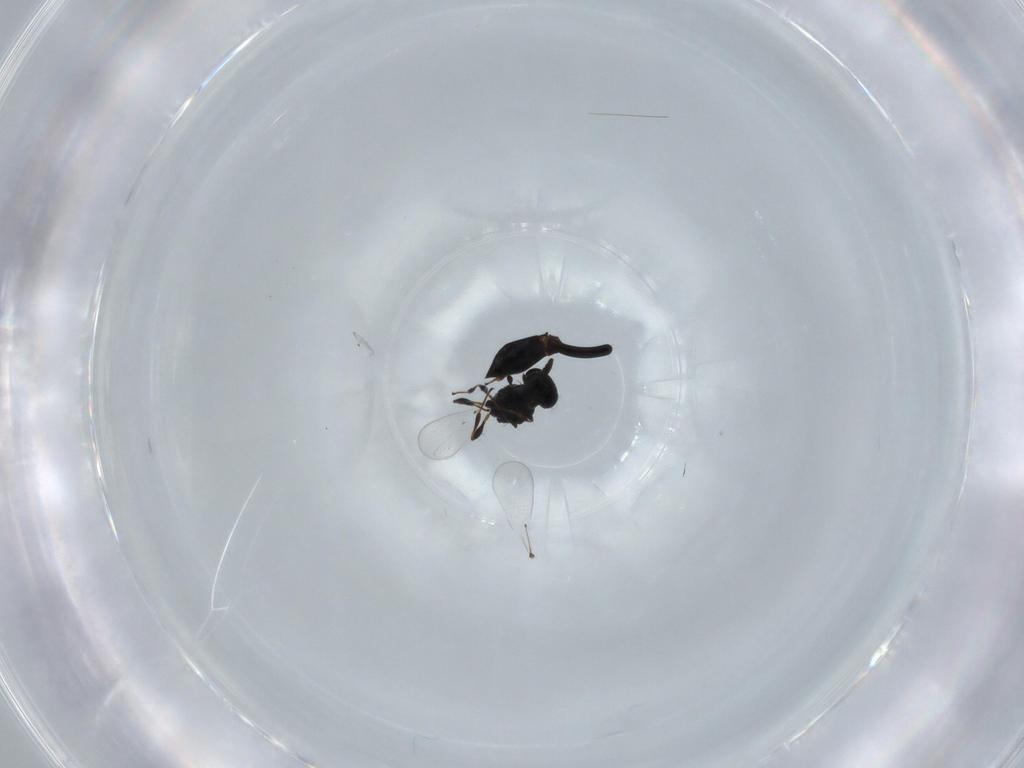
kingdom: Animalia
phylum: Arthropoda
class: Insecta
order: Hymenoptera
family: Platygastridae
